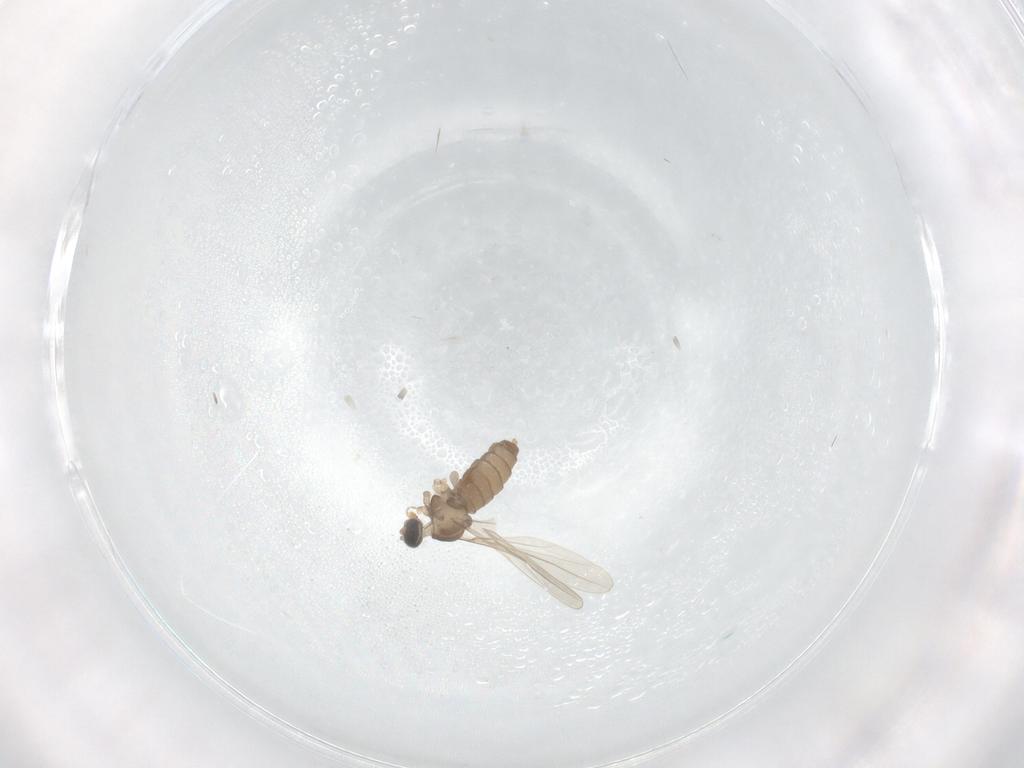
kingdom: Animalia
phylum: Arthropoda
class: Insecta
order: Diptera
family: Cecidomyiidae
